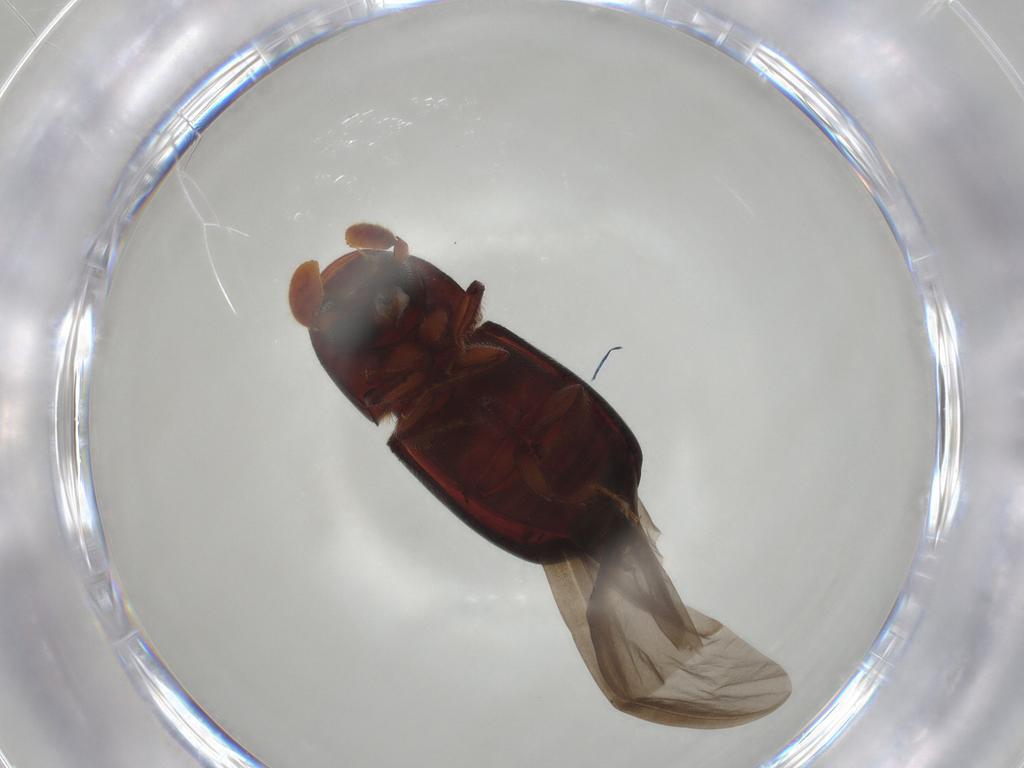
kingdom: Animalia
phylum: Arthropoda
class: Insecta
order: Coleoptera
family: Curculionidae
